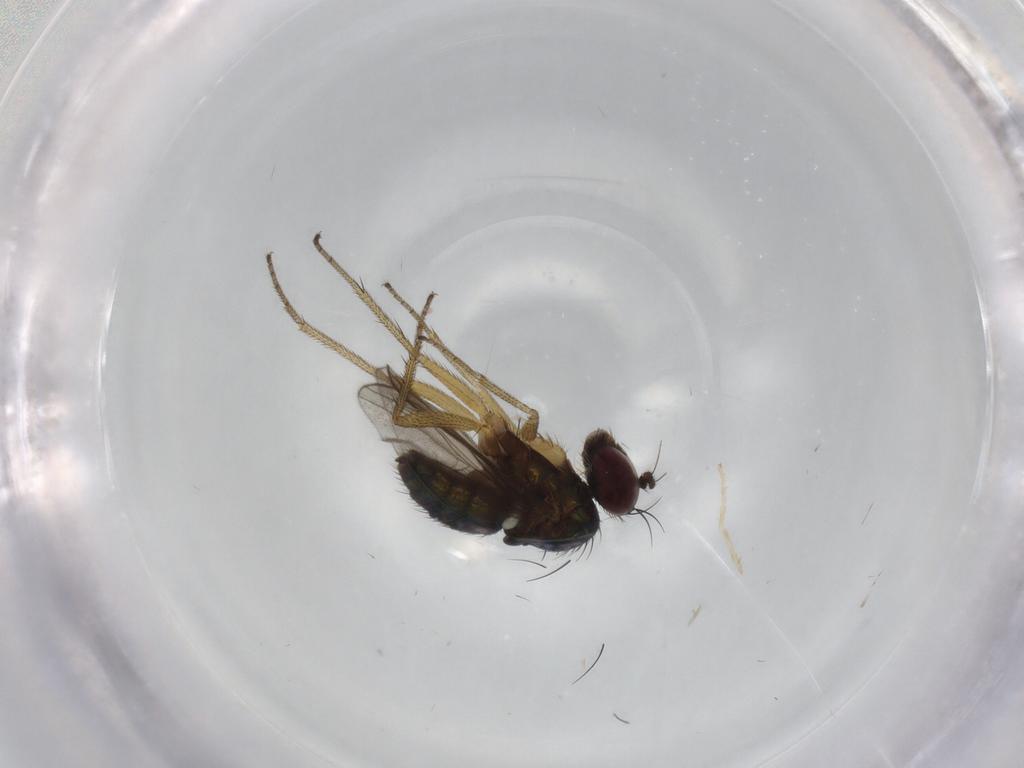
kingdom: Animalia
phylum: Arthropoda
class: Insecta
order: Diptera
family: Dolichopodidae
